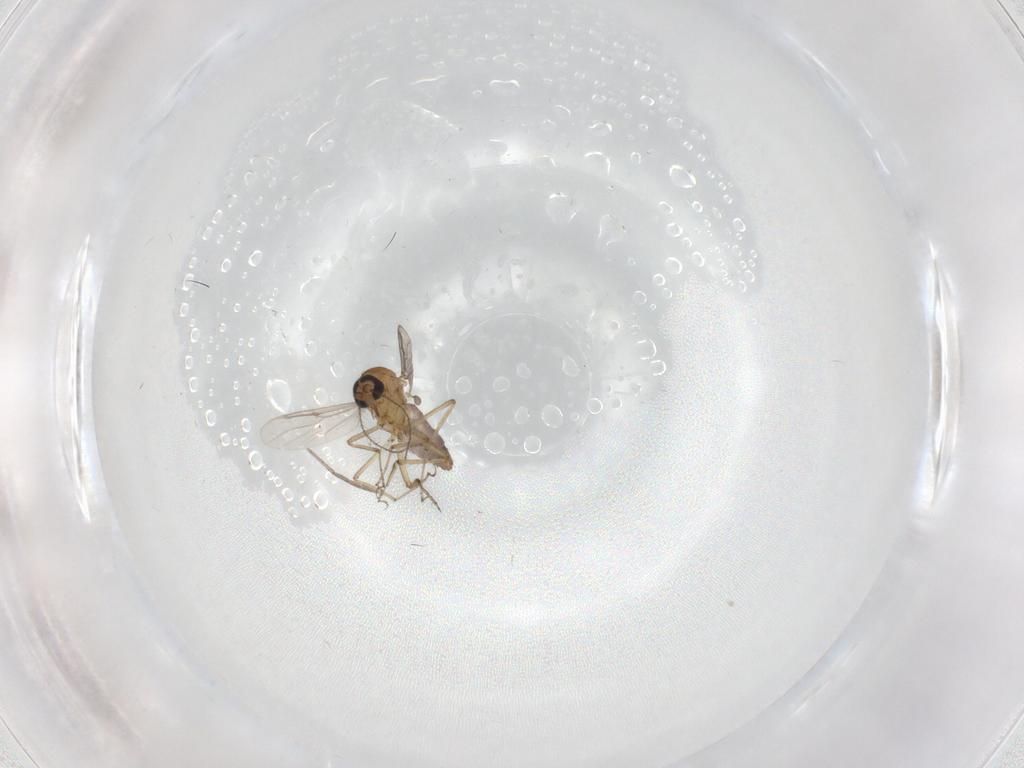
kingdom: Animalia
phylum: Arthropoda
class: Insecta
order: Diptera
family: Ceratopogonidae
